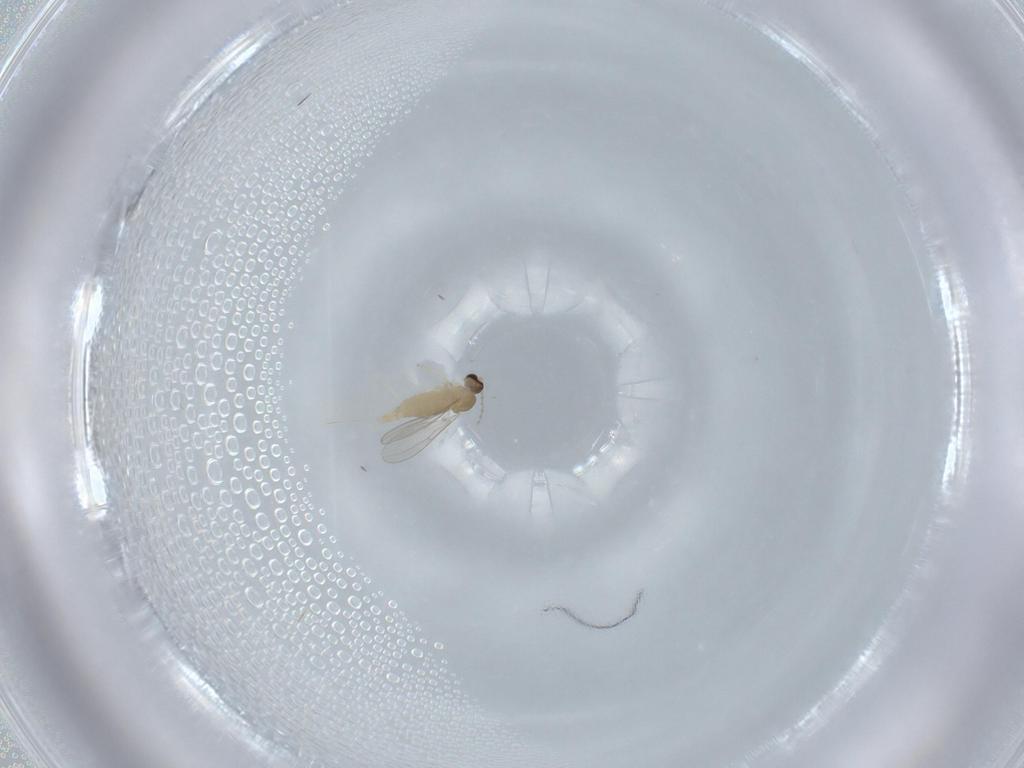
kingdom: Animalia
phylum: Arthropoda
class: Insecta
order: Diptera
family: Cecidomyiidae
